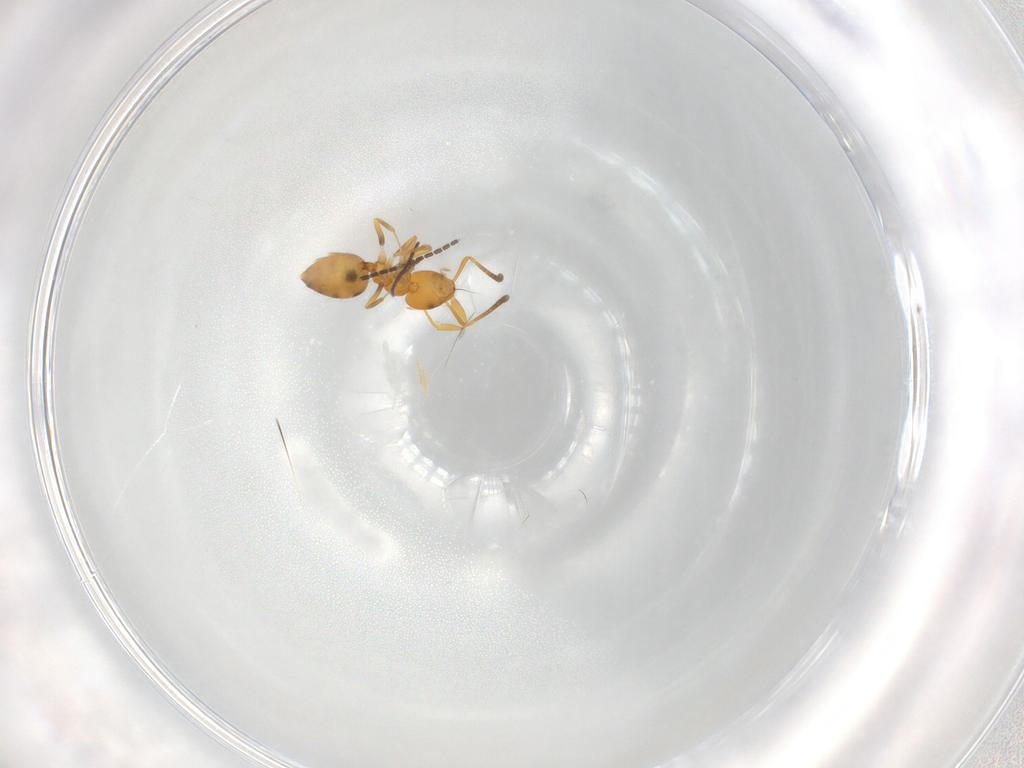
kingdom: Animalia
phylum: Arthropoda
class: Insecta
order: Hymenoptera
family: Formicidae
